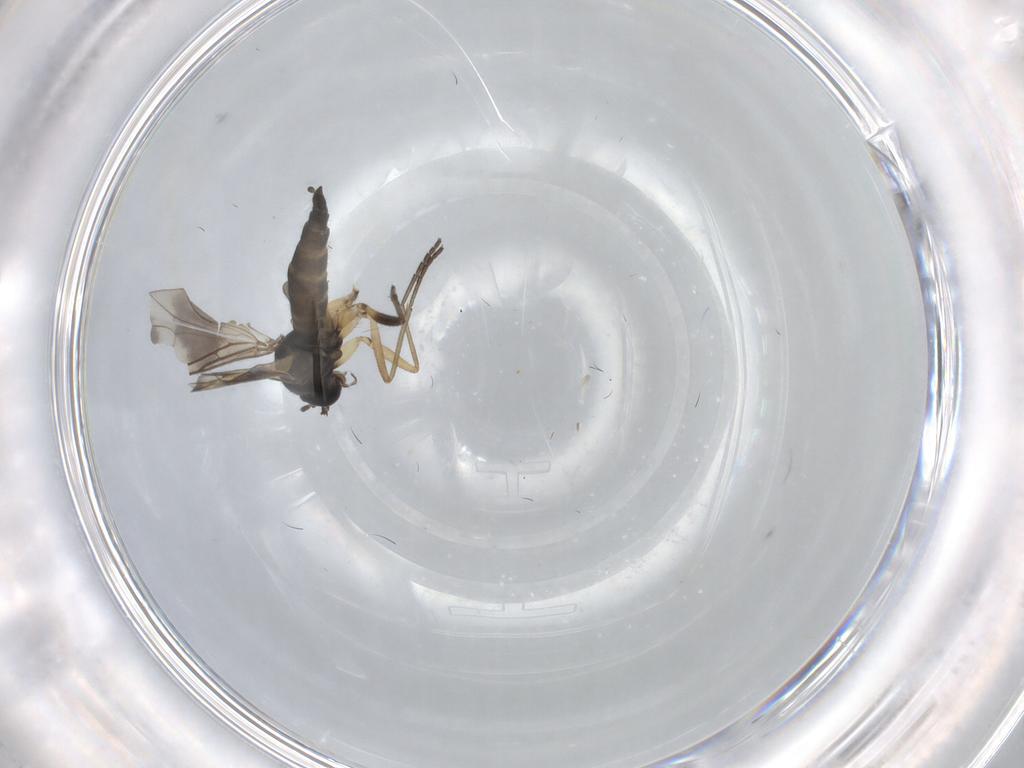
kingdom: Animalia
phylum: Arthropoda
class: Insecta
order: Diptera
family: Sciaridae
